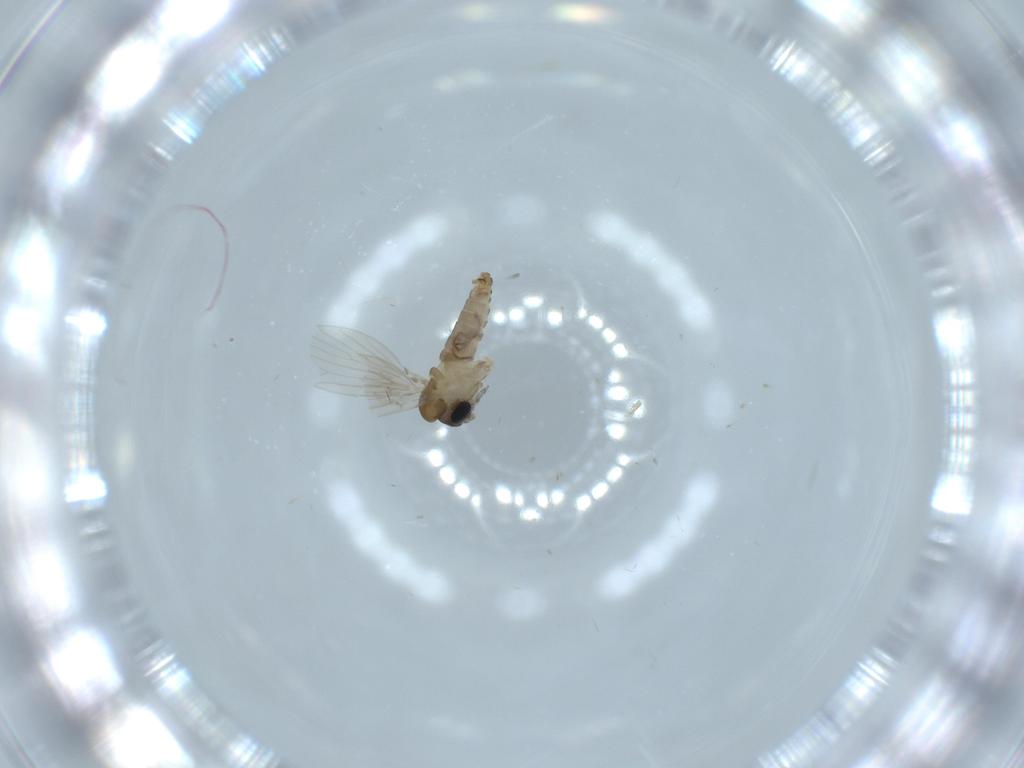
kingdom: Animalia
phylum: Arthropoda
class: Insecta
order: Diptera
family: Psychodidae
